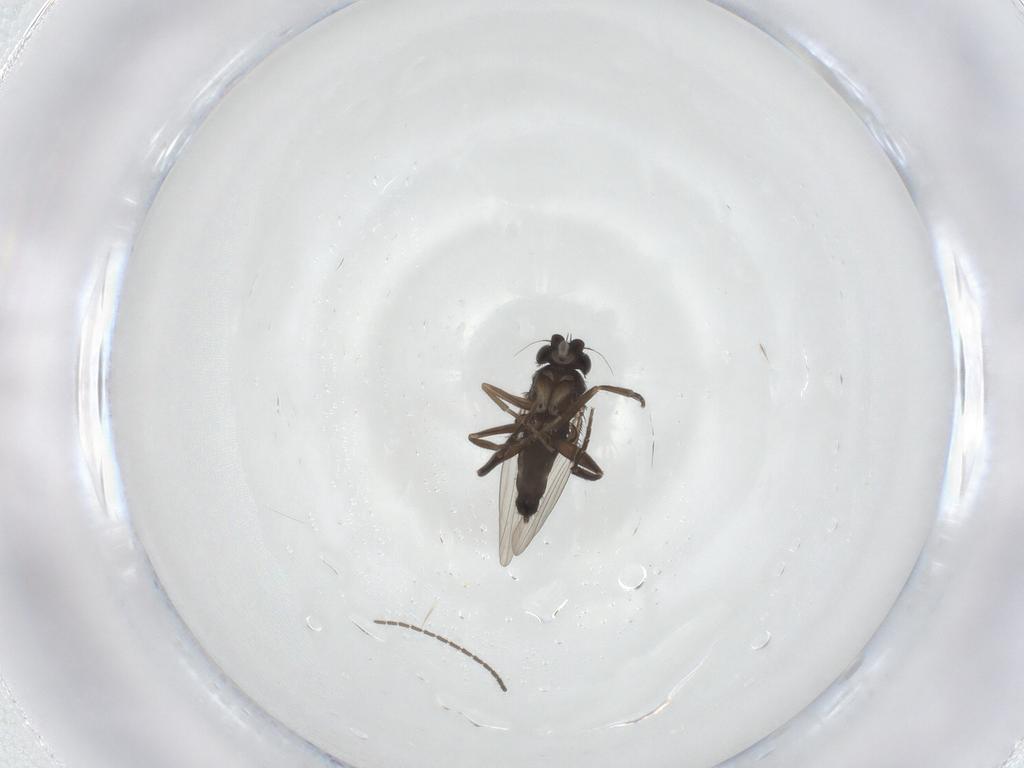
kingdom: Animalia
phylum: Arthropoda
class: Insecta
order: Diptera
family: Phoridae
